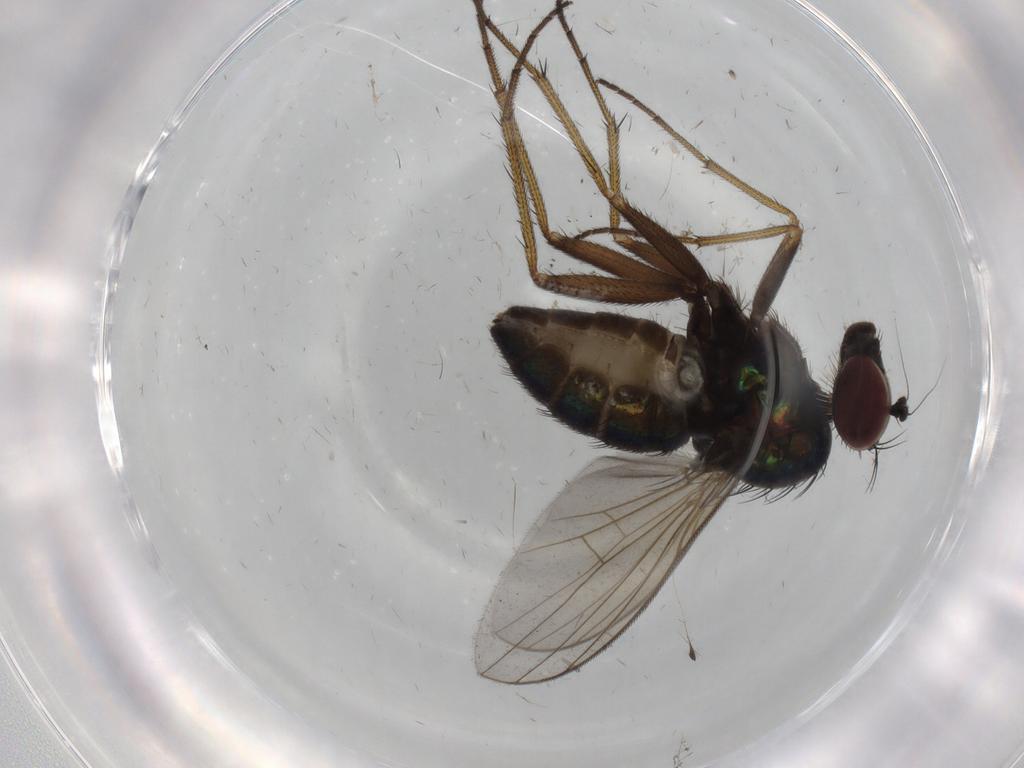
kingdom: Animalia
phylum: Arthropoda
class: Insecta
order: Diptera
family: Dolichopodidae
